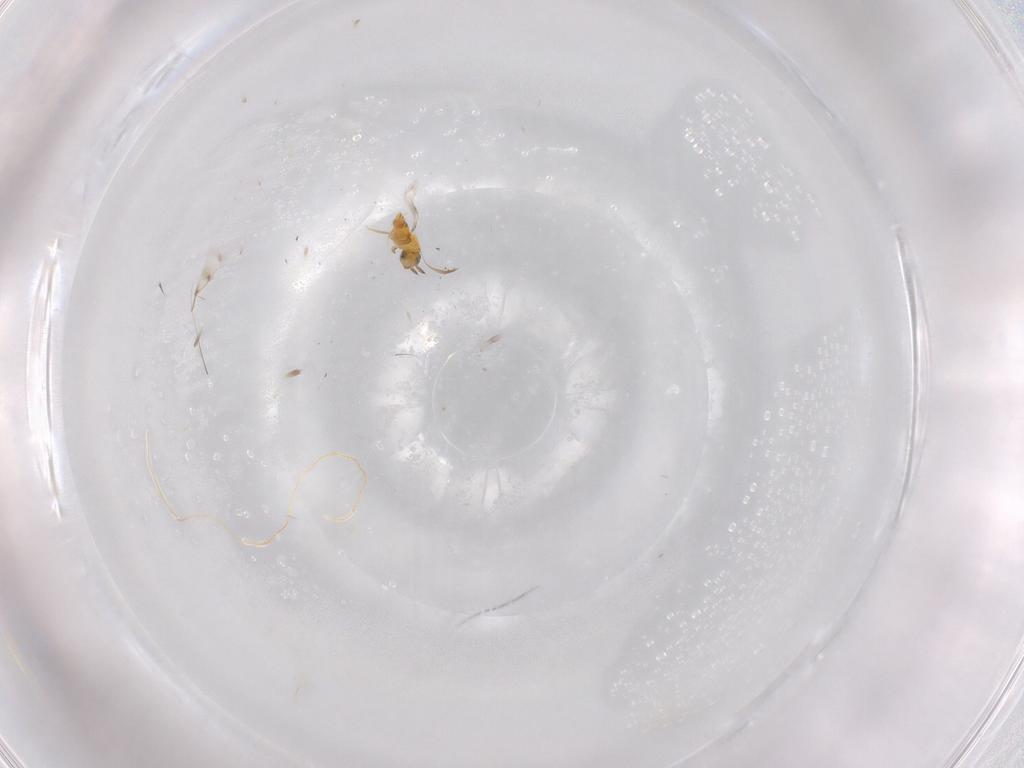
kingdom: Animalia
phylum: Arthropoda
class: Insecta
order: Hymenoptera
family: Aphelinidae
